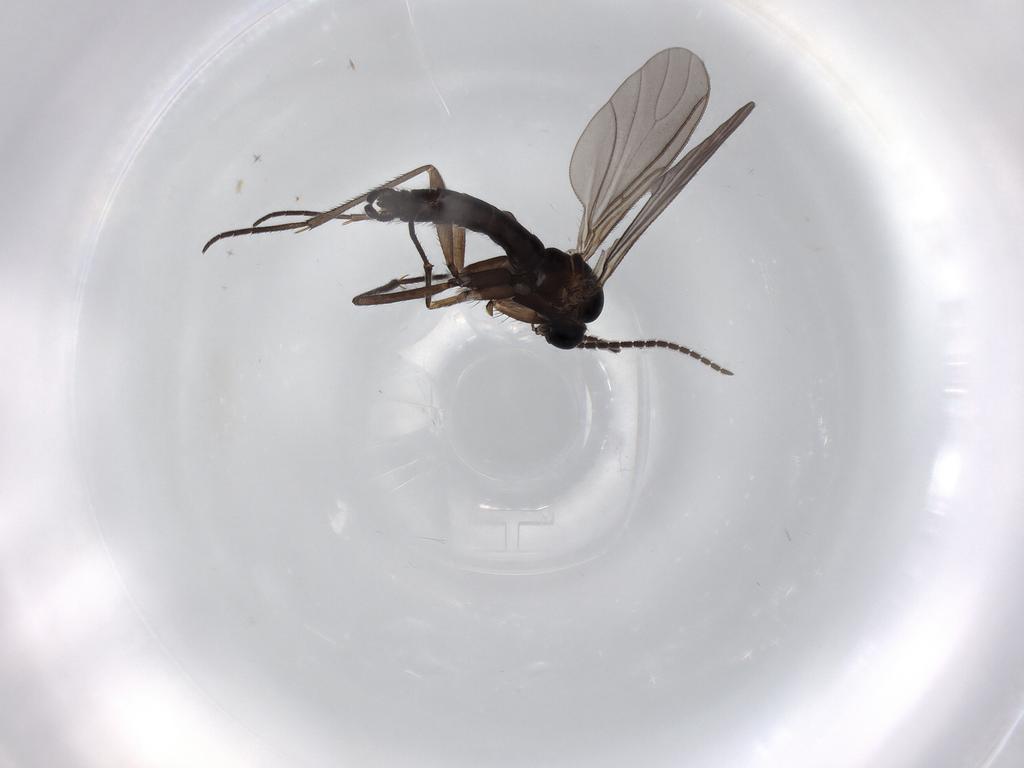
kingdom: Animalia
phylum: Arthropoda
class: Insecta
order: Diptera
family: Sciaridae
